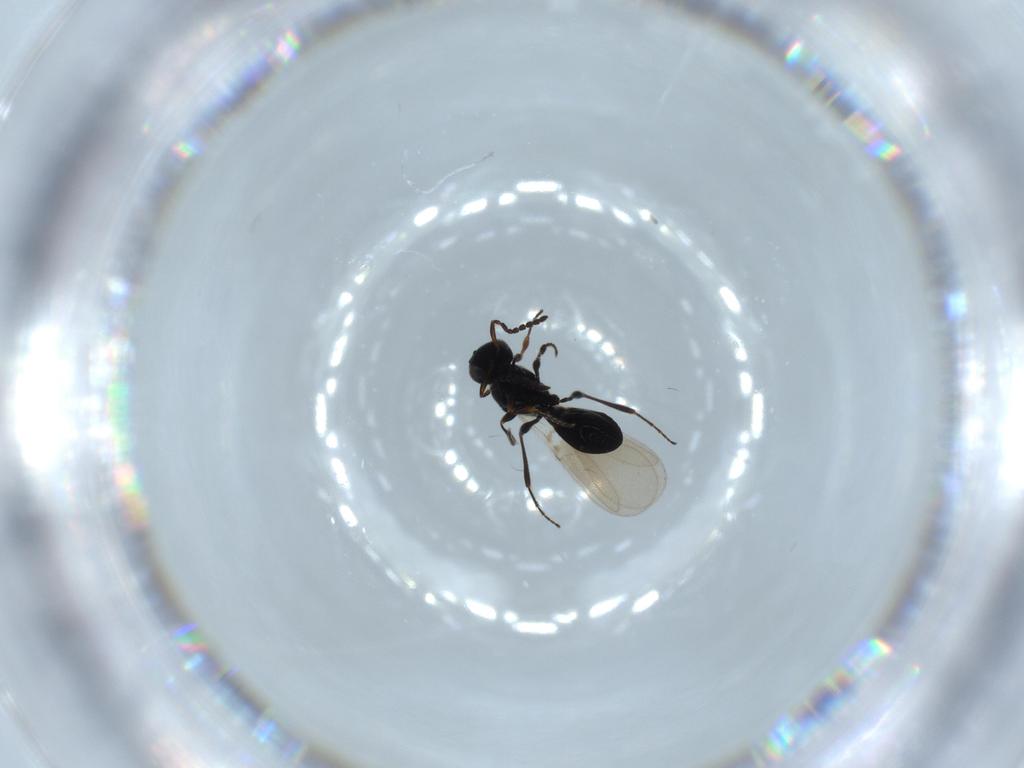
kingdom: Animalia
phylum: Arthropoda
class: Insecta
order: Hymenoptera
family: Platygastridae
